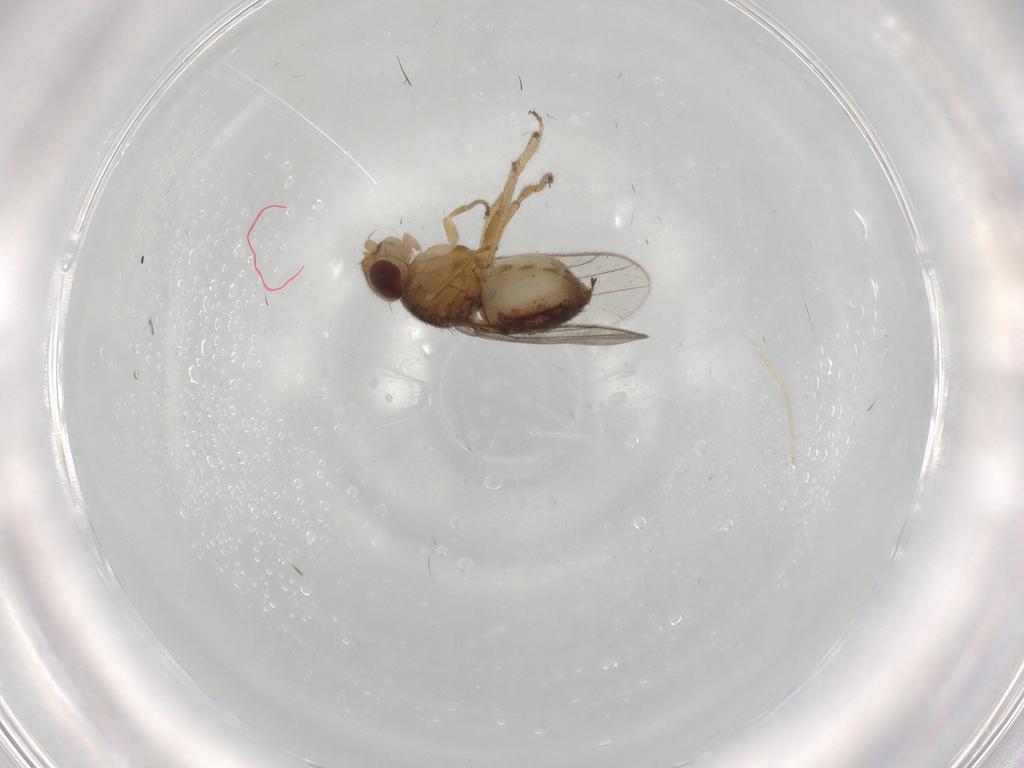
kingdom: Animalia
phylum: Arthropoda
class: Insecta
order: Diptera
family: Chloropidae
